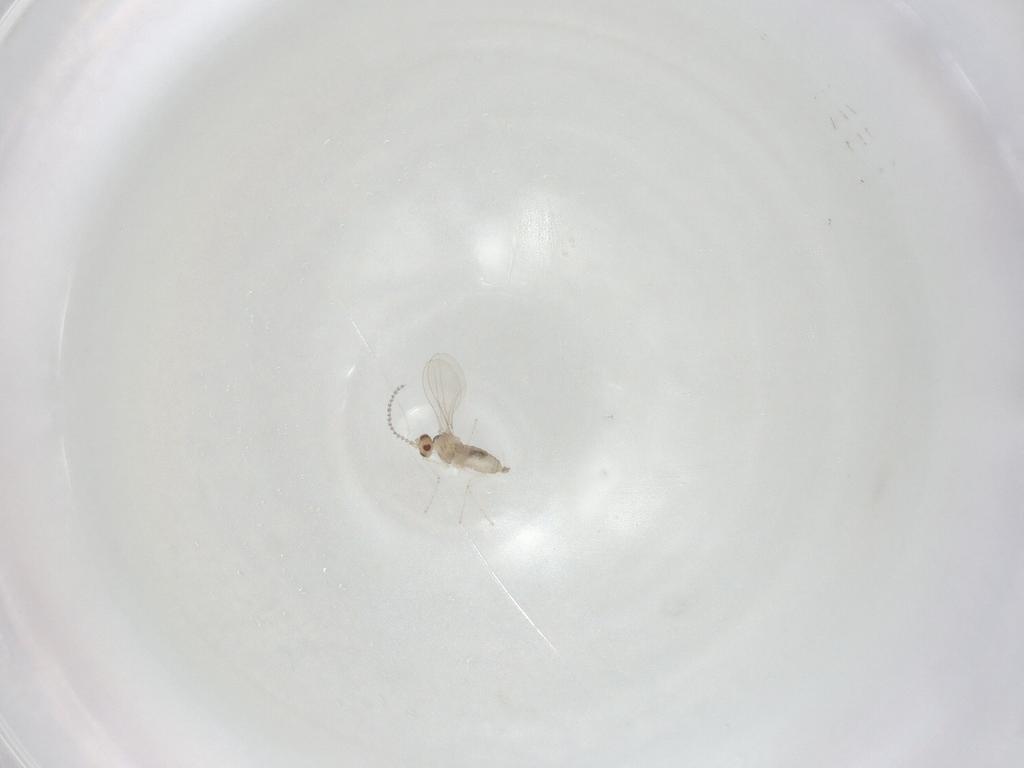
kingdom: Animalia
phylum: Arthropoda
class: Insecta
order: Diptera
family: Cecidomyiidae
